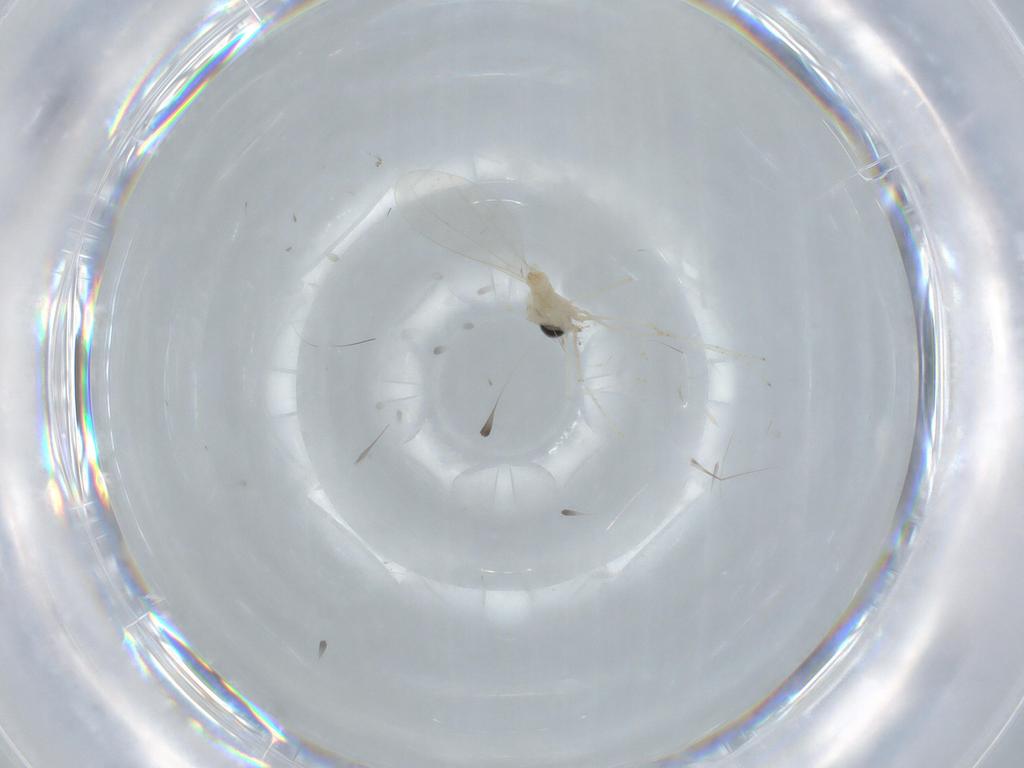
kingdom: Animalia
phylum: Arthropoda
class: Insecta
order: Diptera
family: Cecidomyiidae
